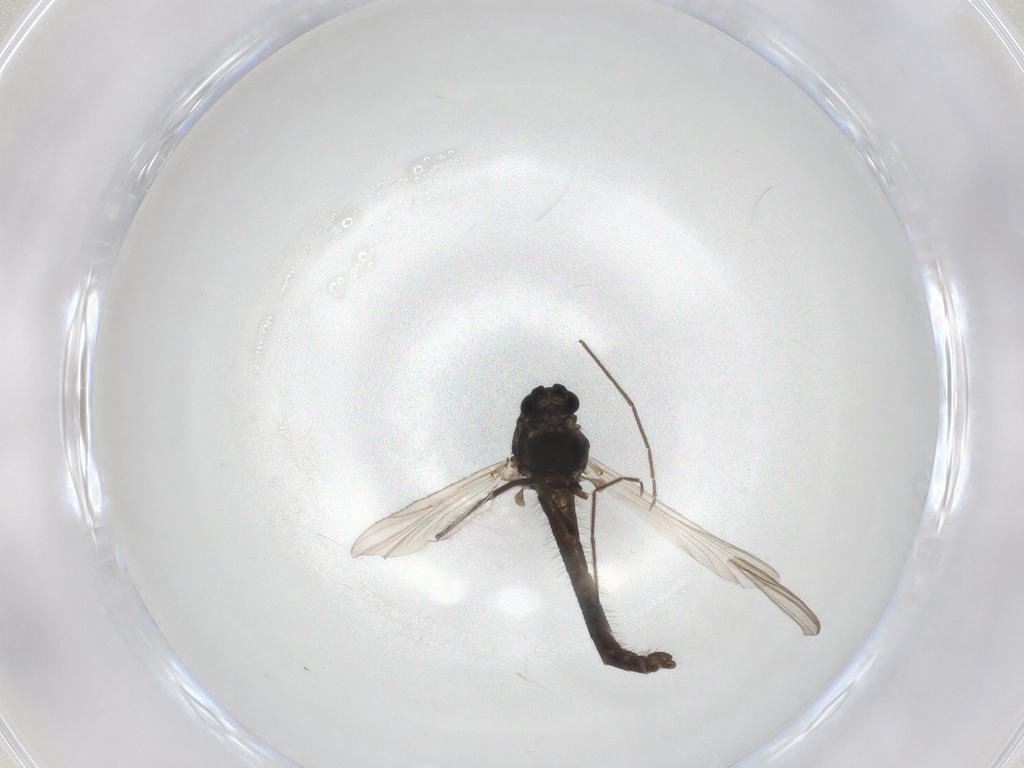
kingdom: Animalia
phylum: Arthropoda
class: Insecta
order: Diptera
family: Chironomidae
